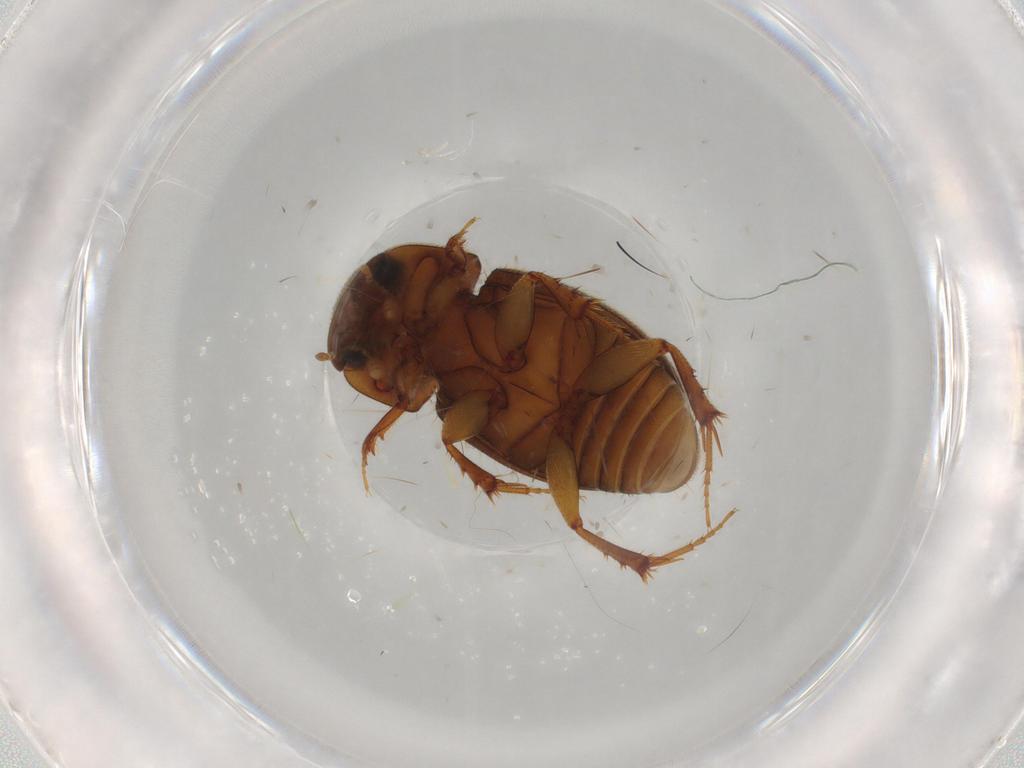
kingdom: Animalia
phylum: Arthropoda
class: Insecta
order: Coleoptera
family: Scarabaeidae
